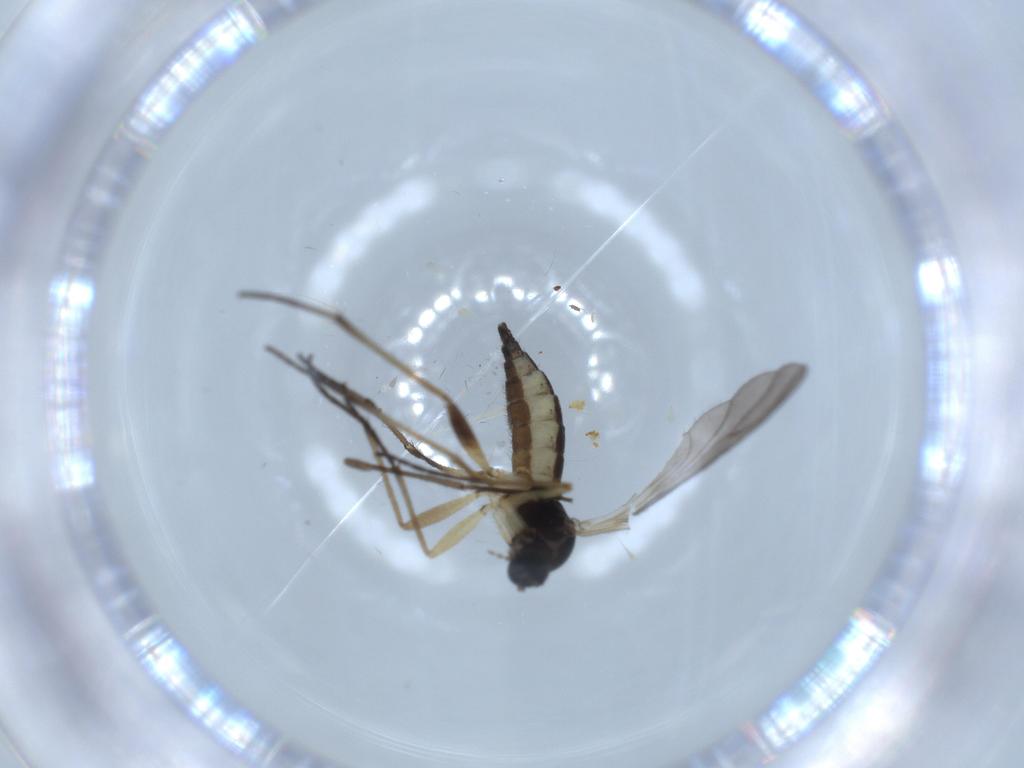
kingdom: Animalia
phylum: Arthropoda
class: Insecta
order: Diptera
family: Sciaridae
